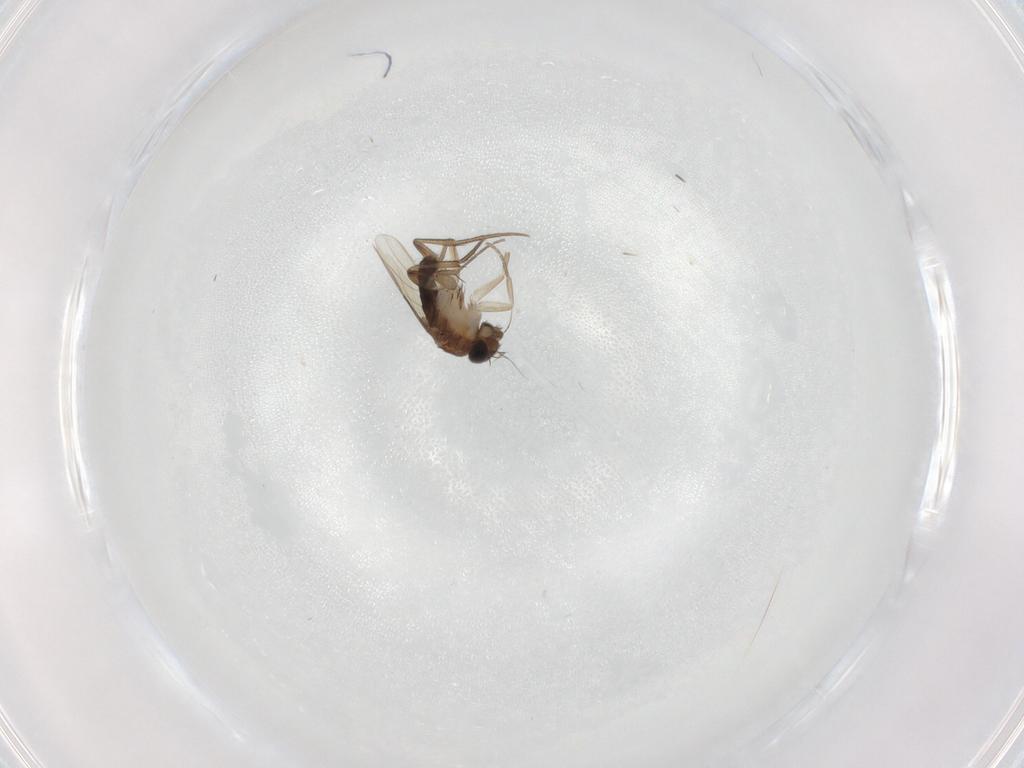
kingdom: Animalia
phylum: Arthropoda
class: Insecta
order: Diptera
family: Phoridae
